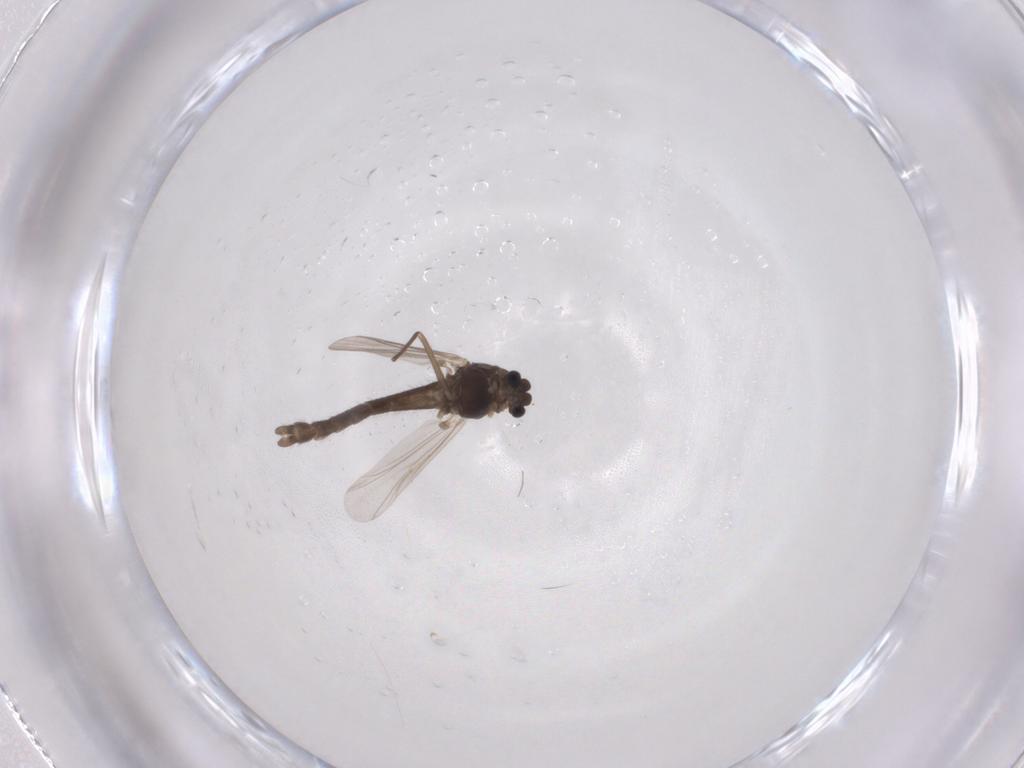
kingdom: Animalia
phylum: Arthropoda
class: Insecta
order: Diptera
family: Chironomidae
